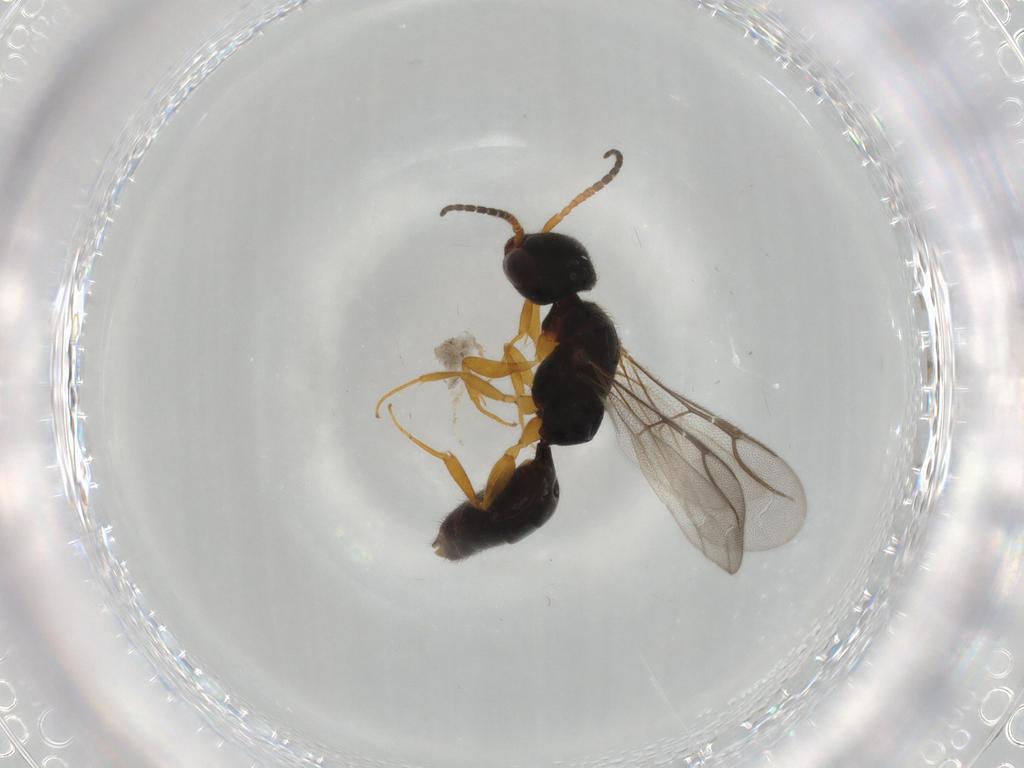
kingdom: Animalia
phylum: Arthropoda
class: Insecta
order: Hymenoptera
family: Bethylidae
